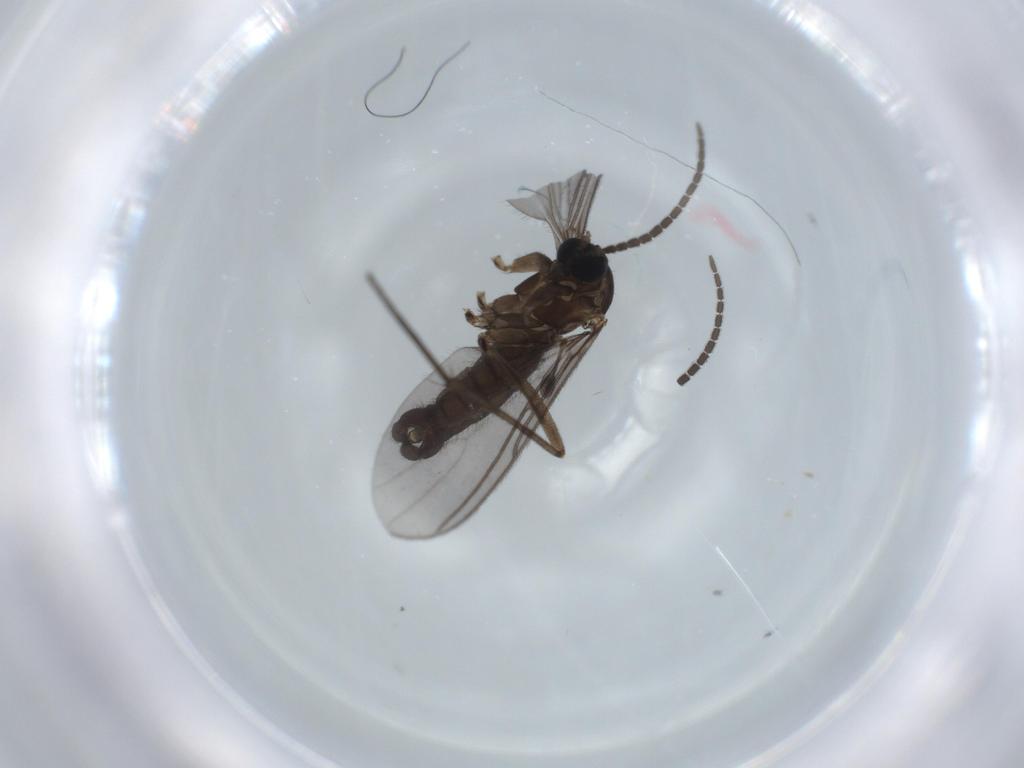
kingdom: Animalia
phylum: Arthropoda
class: Insecta
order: Diptera
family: Sciaridae
